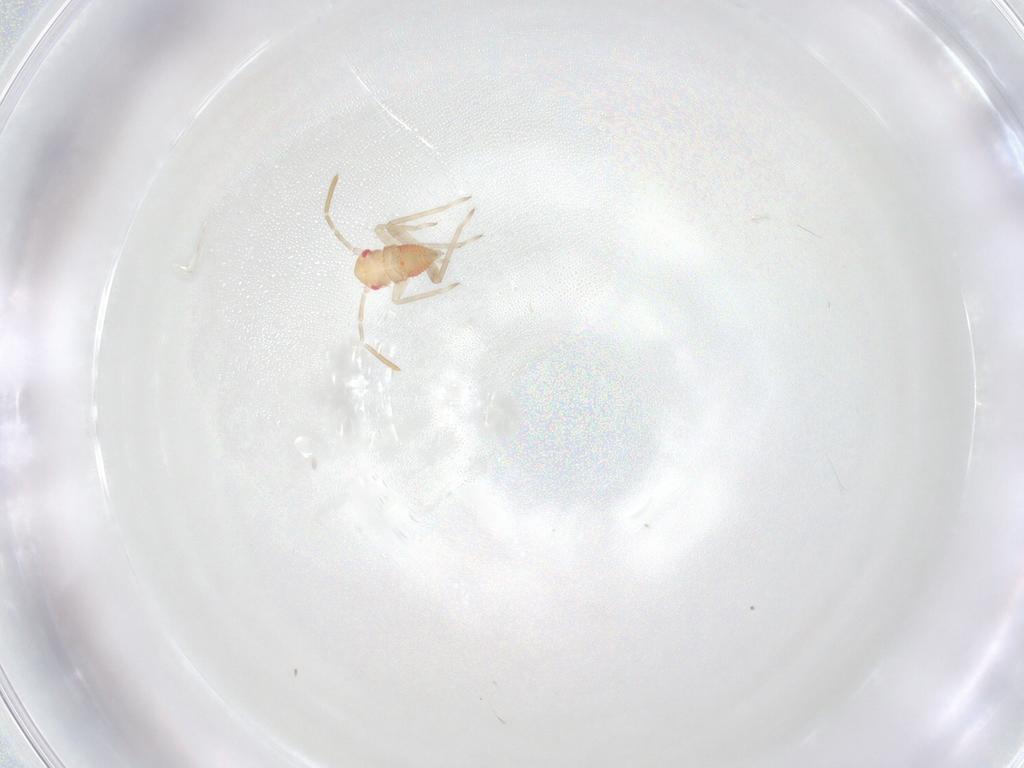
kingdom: Animalia
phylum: Arthropoda
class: Insecta
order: Hemiptera
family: Miridae
